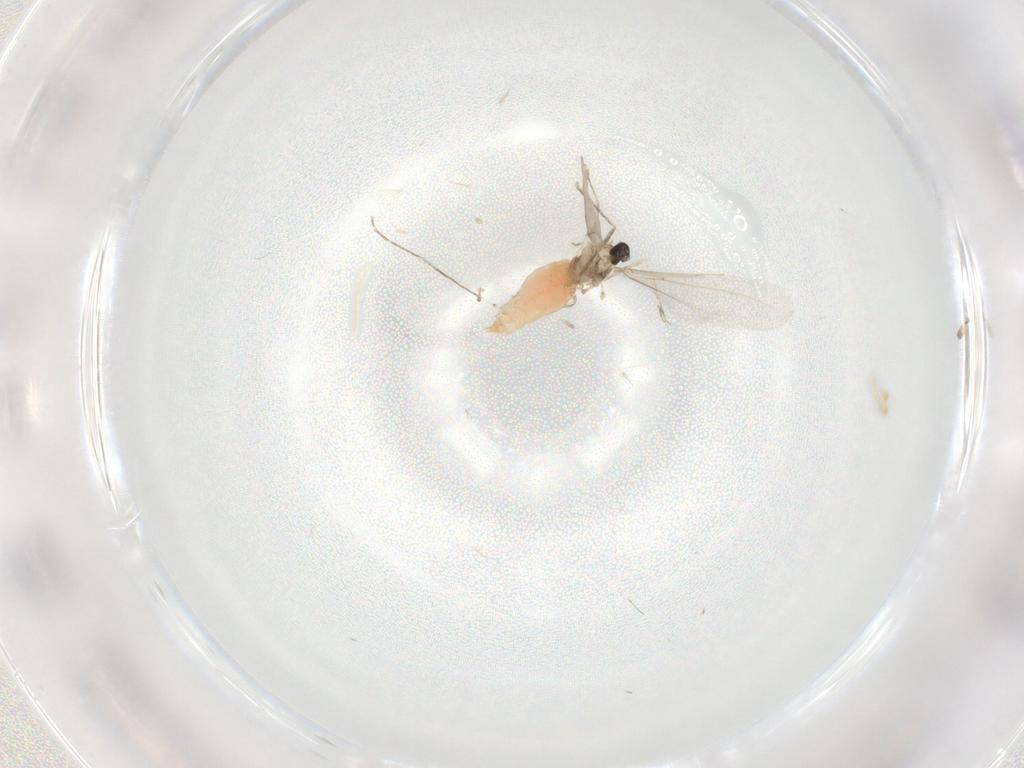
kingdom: Animalia
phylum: Arthropoda
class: Insecta
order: Diptera
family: Cecidomyiidae
